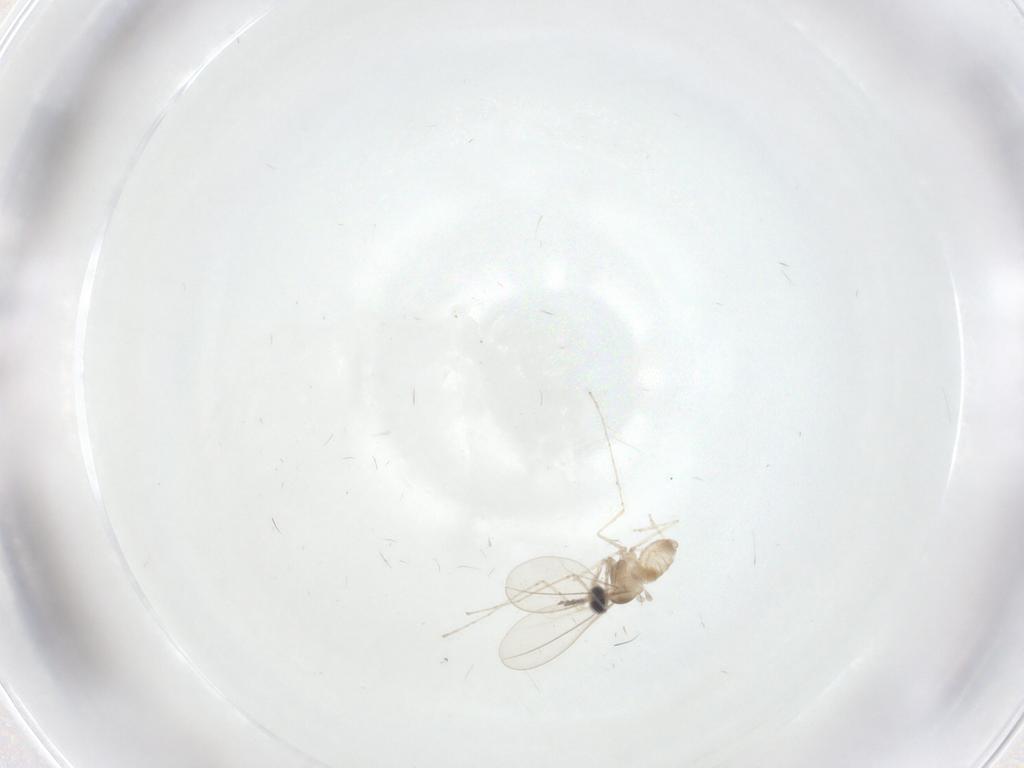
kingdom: Animalia
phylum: Arthropoda
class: Insecta
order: Diptera
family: Cecidomyiidae
